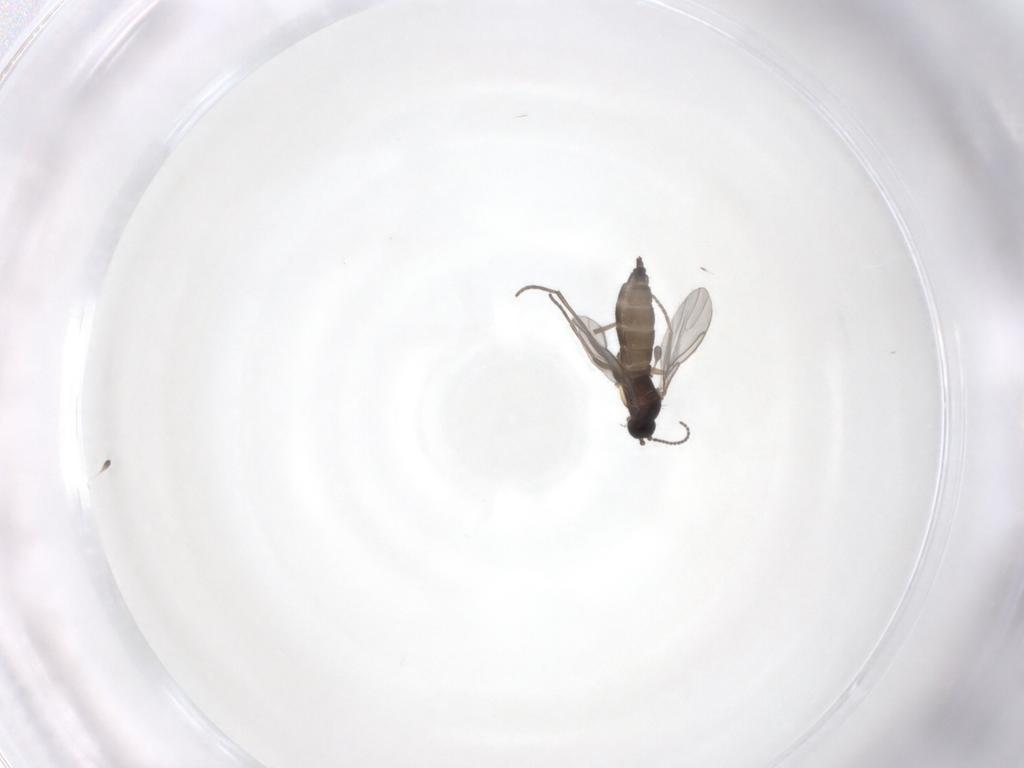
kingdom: Animalia
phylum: Arthropoda
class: Insecta
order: Diptera
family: Sciaridae
